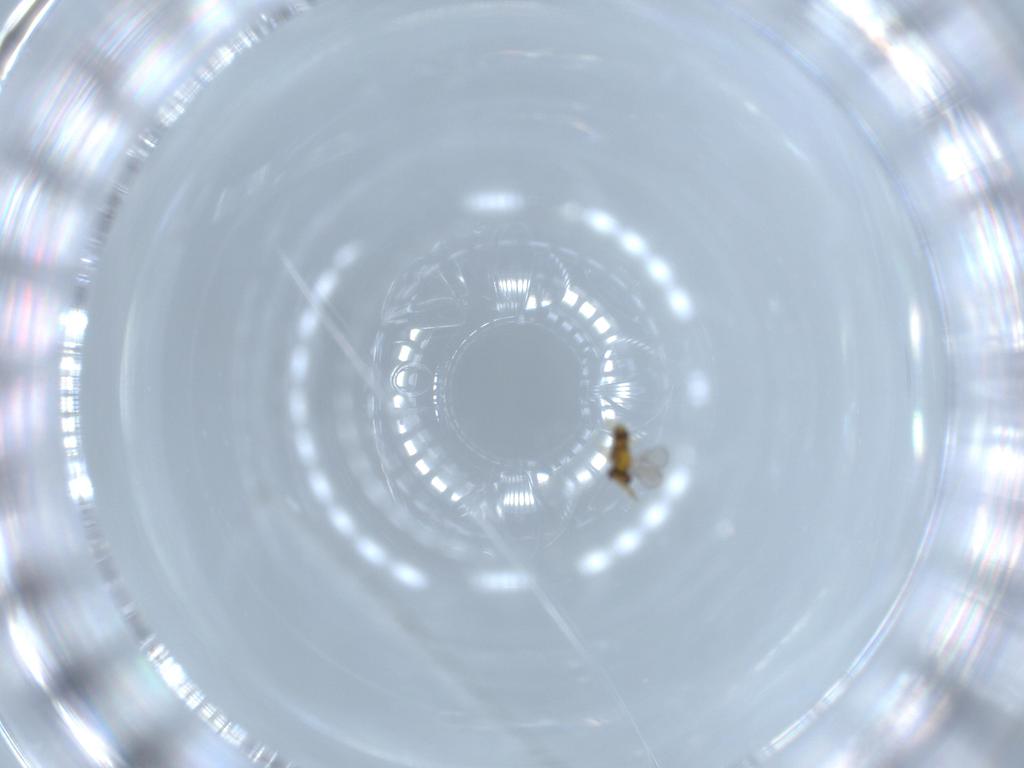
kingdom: Animalia
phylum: Arthropoda
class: Insecta
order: Hymenoptera
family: Aphelinidae
